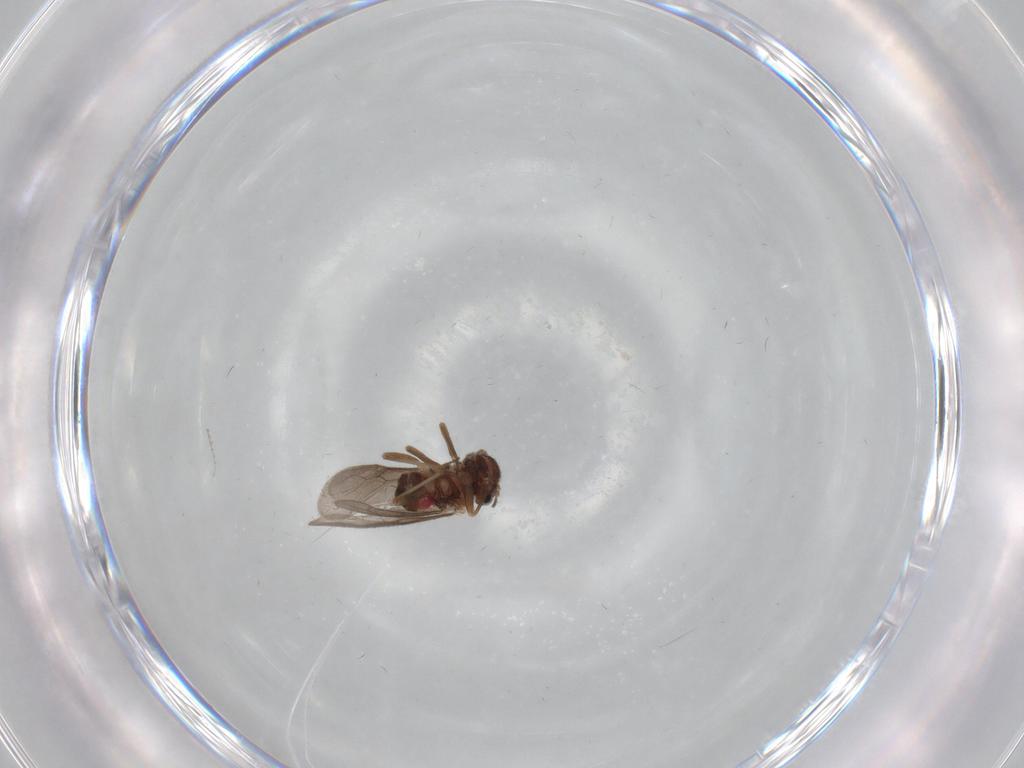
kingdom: Animalia
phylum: Arthropoda
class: Insecta
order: Psocodea
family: Asiopsocidae
